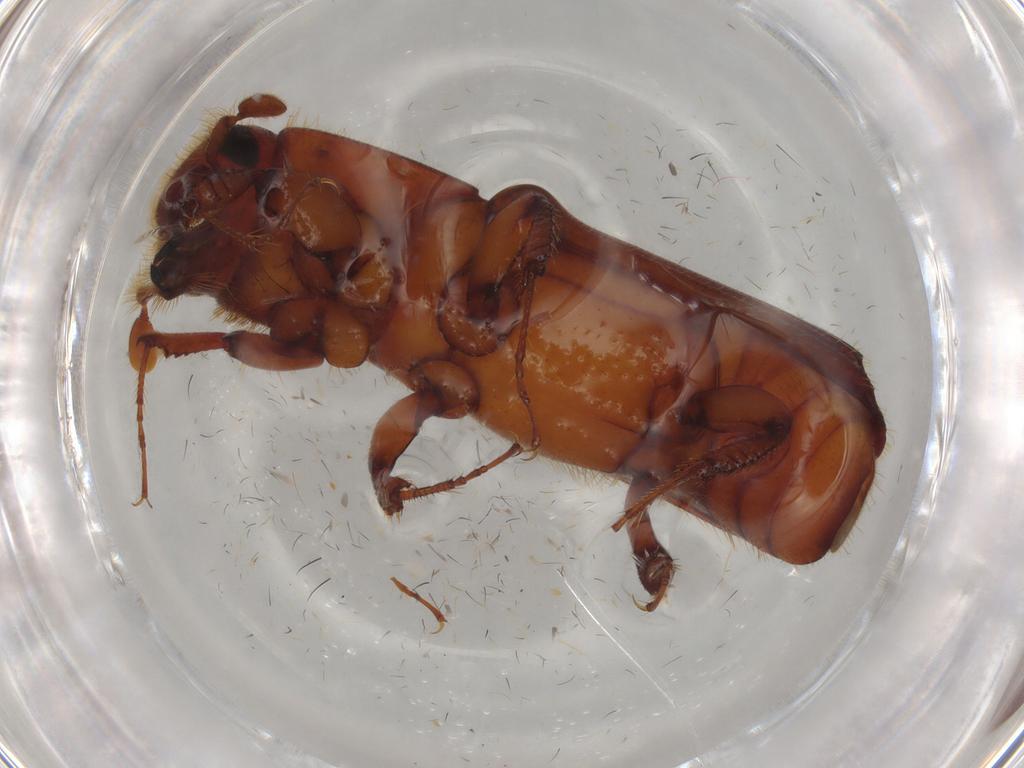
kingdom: Animalia
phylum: Arthropoda
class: Insecta
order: Coleoptera
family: Curculionidae
